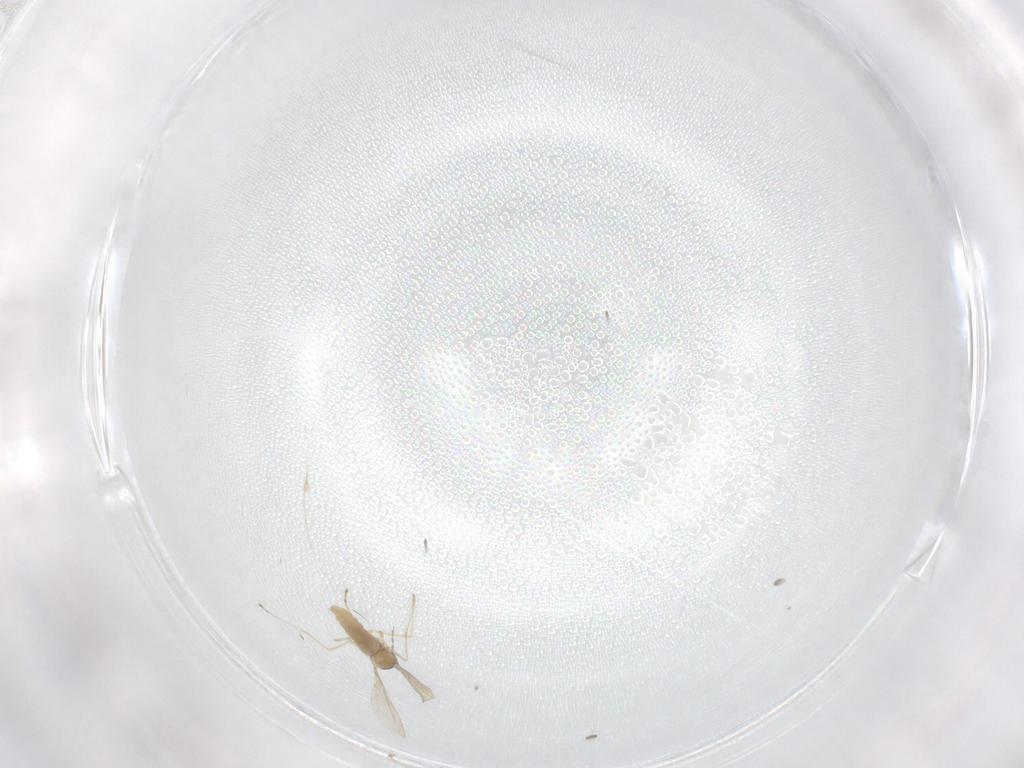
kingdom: Animalia
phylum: Arthropoda
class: Insecta
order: Diptera
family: Cecidomyiidae
